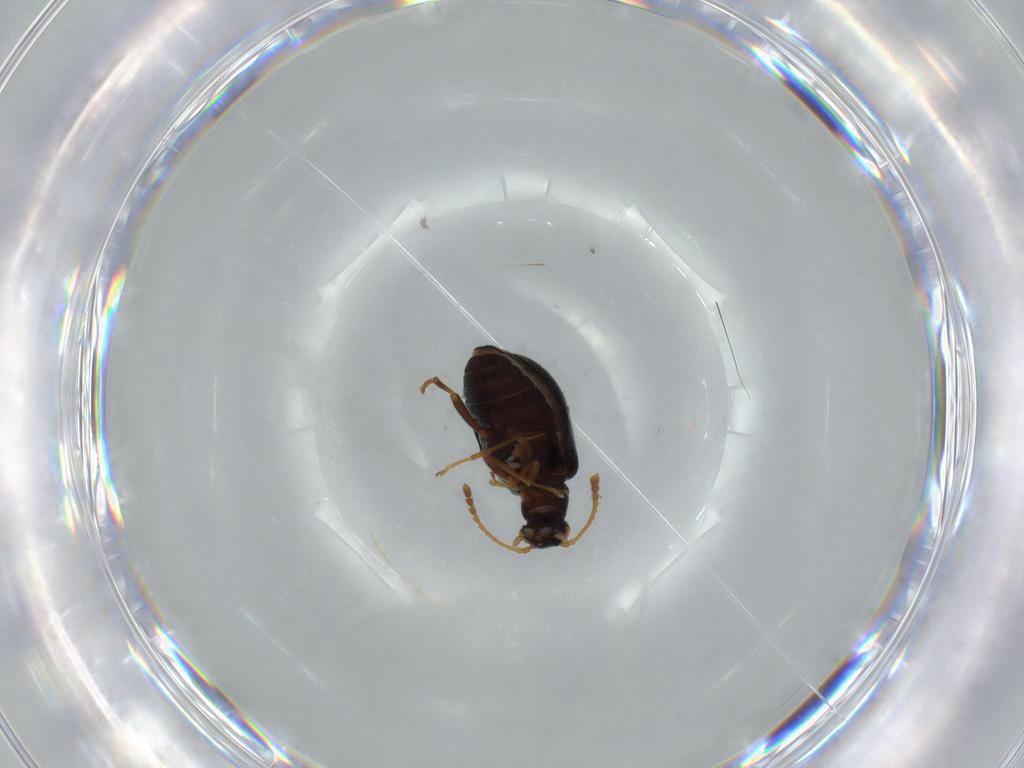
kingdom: Animalia
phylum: Arthropoda
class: Insecta
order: Coleoptera
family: Aderidae
